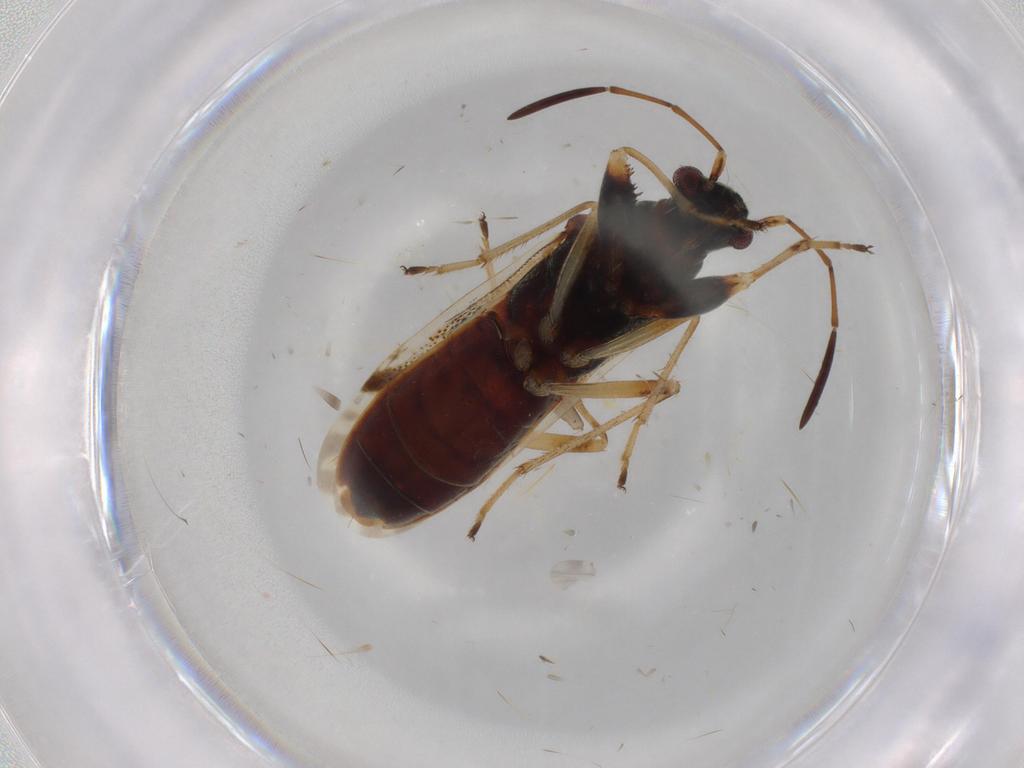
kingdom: Animalia
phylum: Arthropoda
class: Insecta
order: Hemiptera
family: Rhyparochromidae
